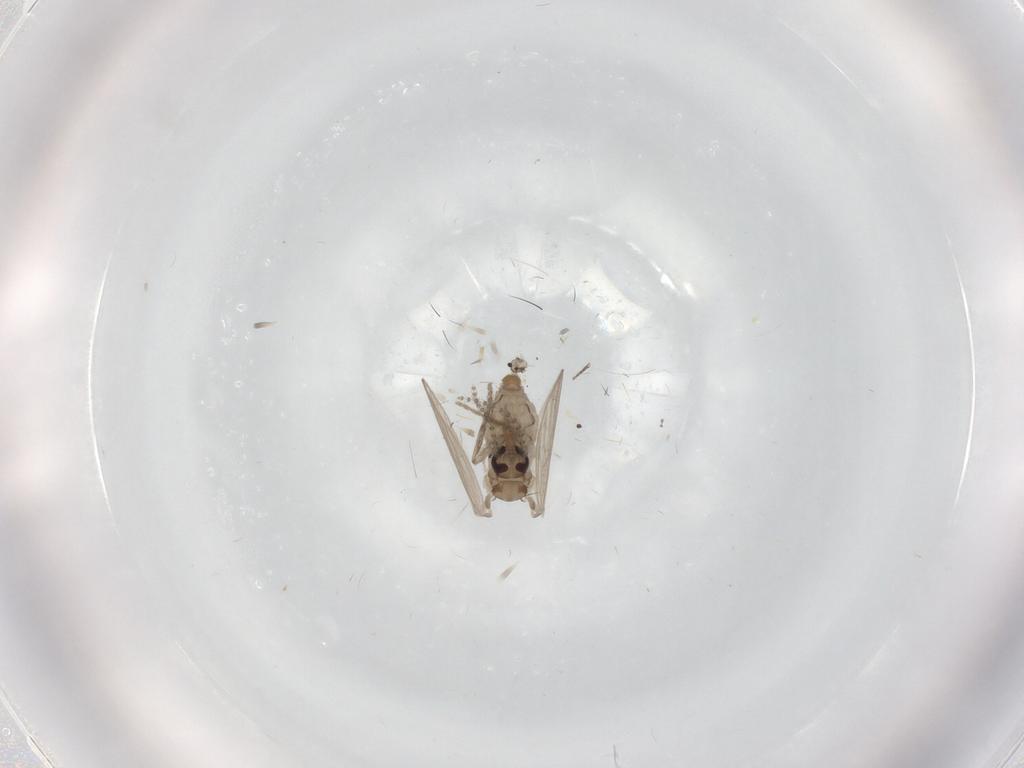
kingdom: Animalia
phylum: Arthropoda
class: Insecta
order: Diptera
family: Psychodidae
